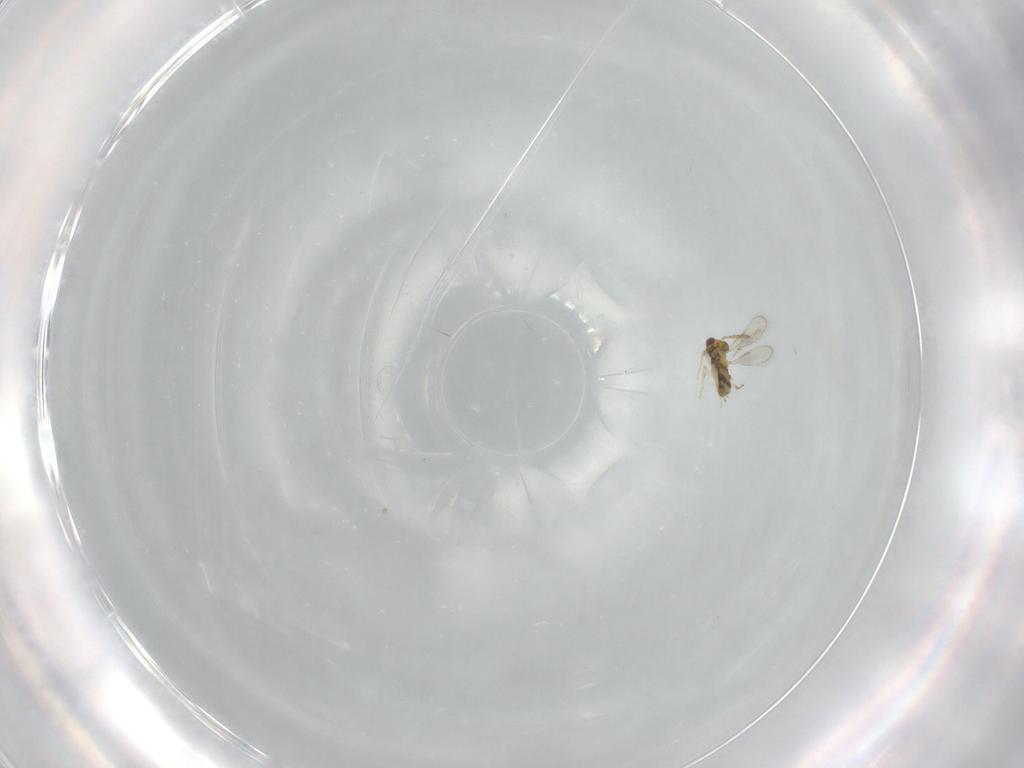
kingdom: Animalia
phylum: Arthropoda
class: Insecta
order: Hymenoptera
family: Aphelinidae
